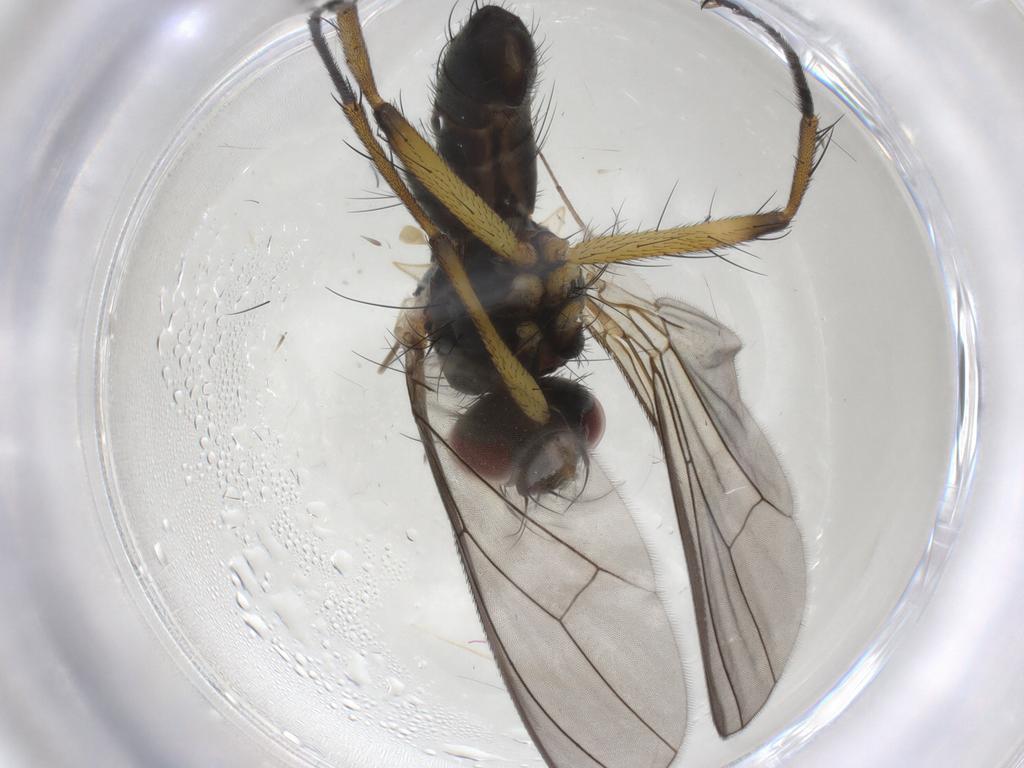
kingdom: Animalia
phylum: Arthropoda
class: Insecta
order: Diptera
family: Muscidae
